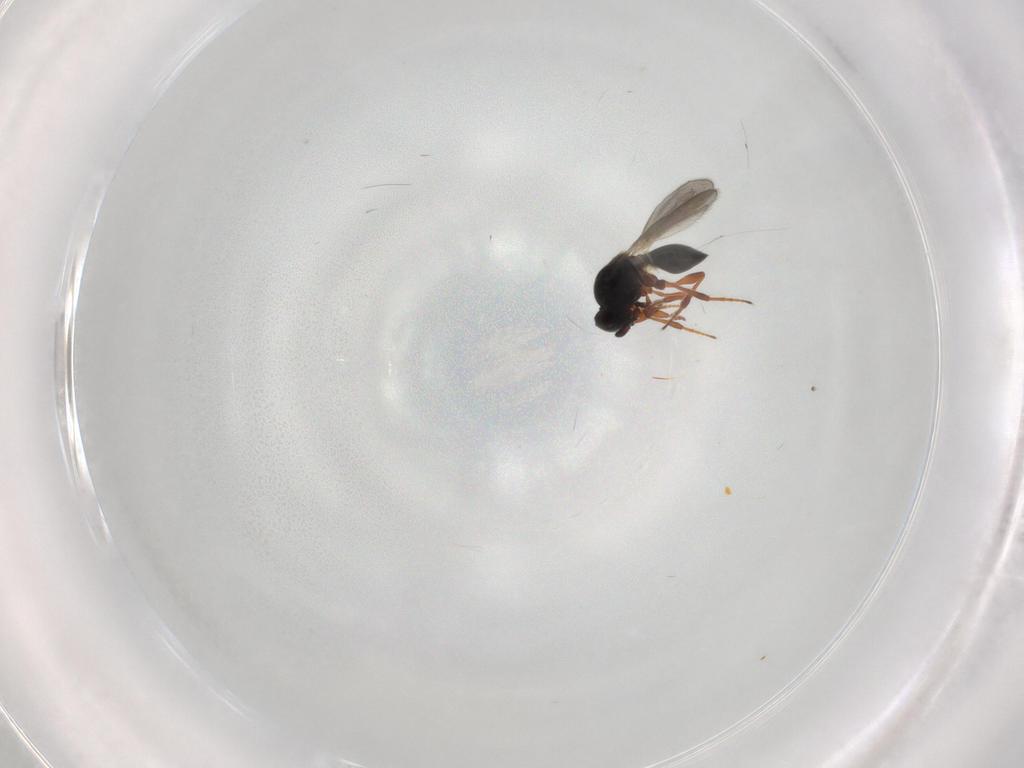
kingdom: Animalia
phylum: Arthropoda
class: Insecta
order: Hymenoptera
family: Platygastridae
